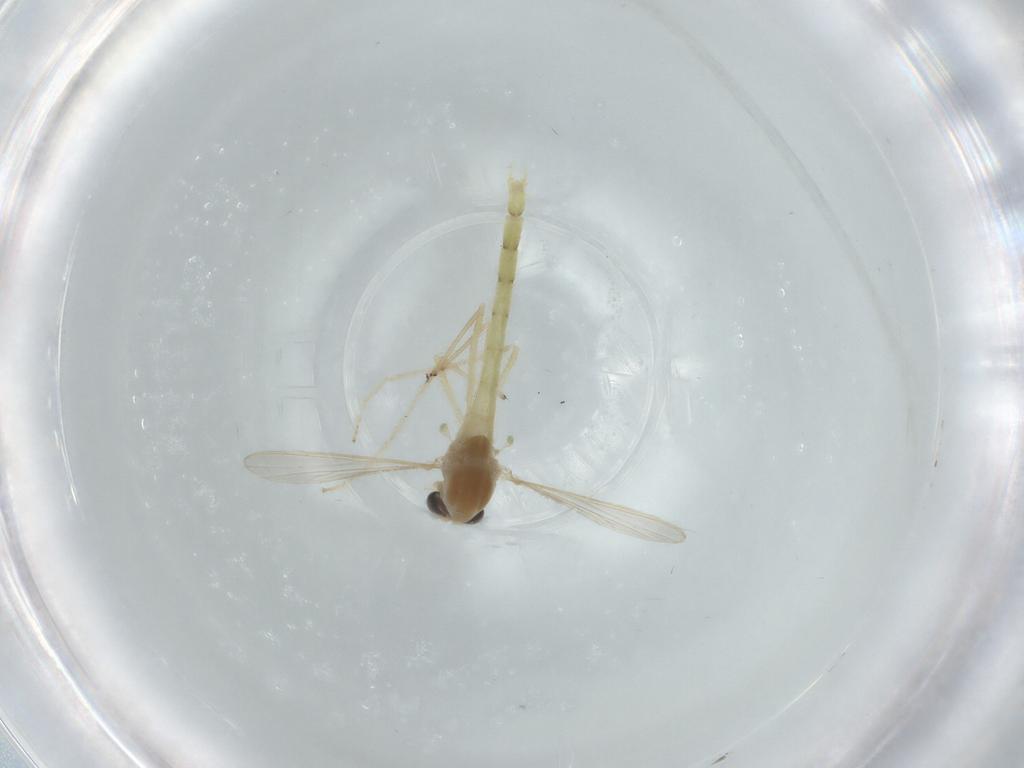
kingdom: Animalia
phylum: Arthropoda
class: Insecta
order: Diptera
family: Chironomidae
